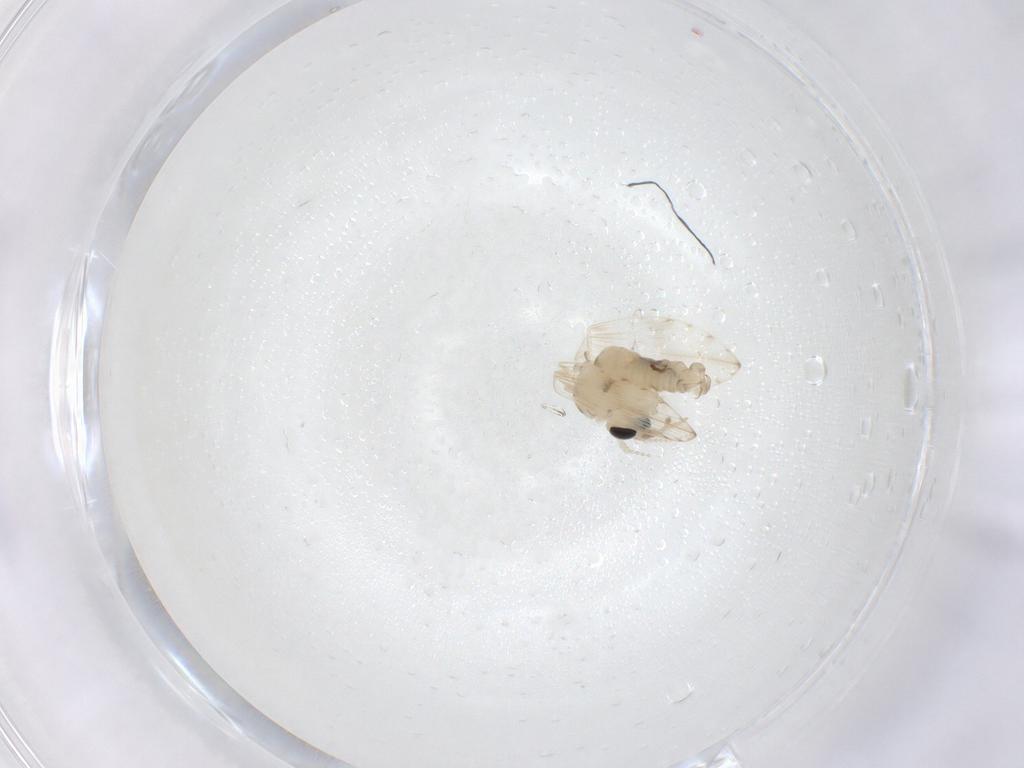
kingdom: Animalia
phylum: Arthropoda
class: Insecta
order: Diptera
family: Psychodidae
